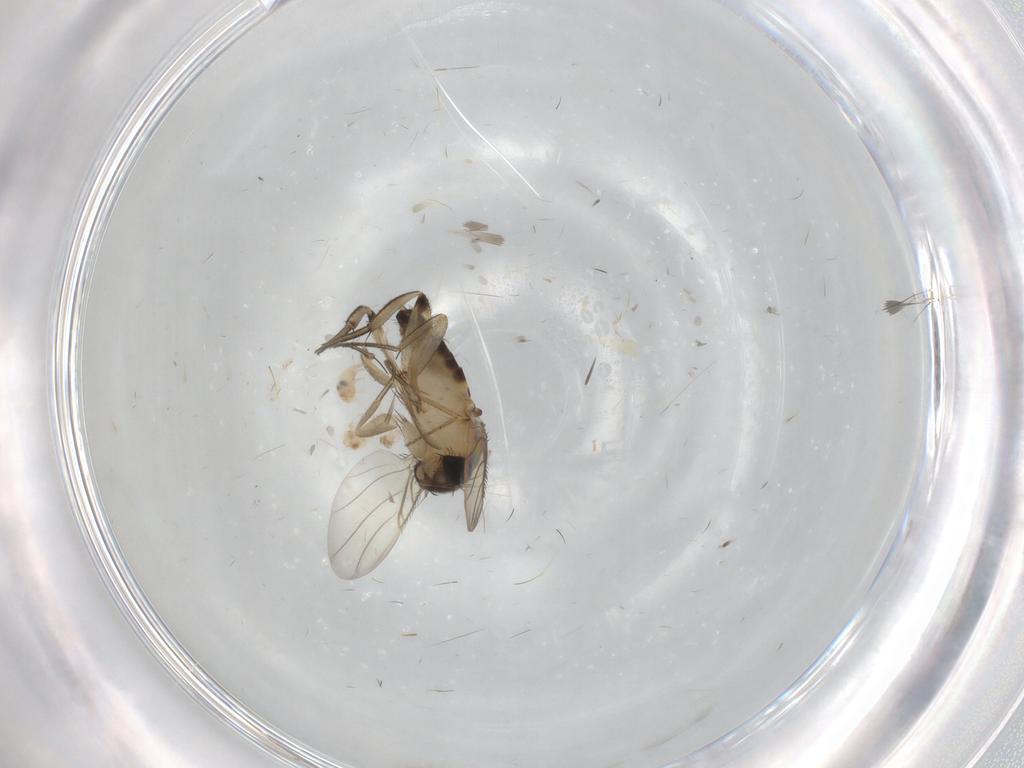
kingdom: Animalia
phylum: Arthropoda
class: Insecta
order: Diptera
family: Phoridae
